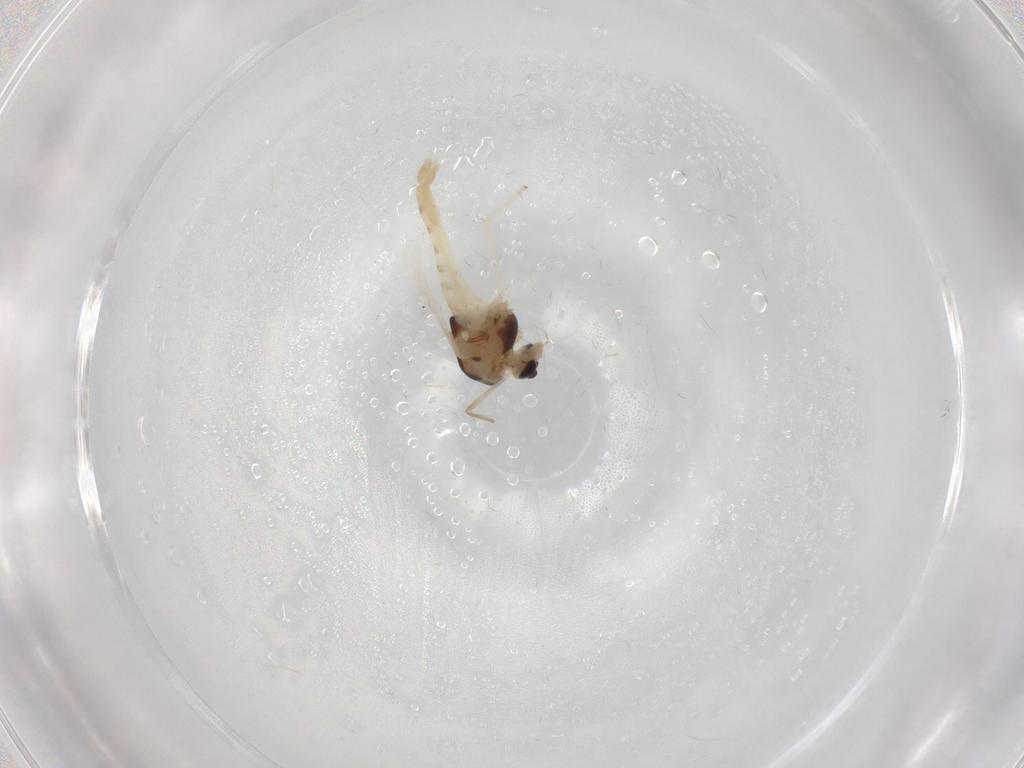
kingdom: Animalia
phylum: Arthropoda
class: Insecta
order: Diptera
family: Chironomidae
